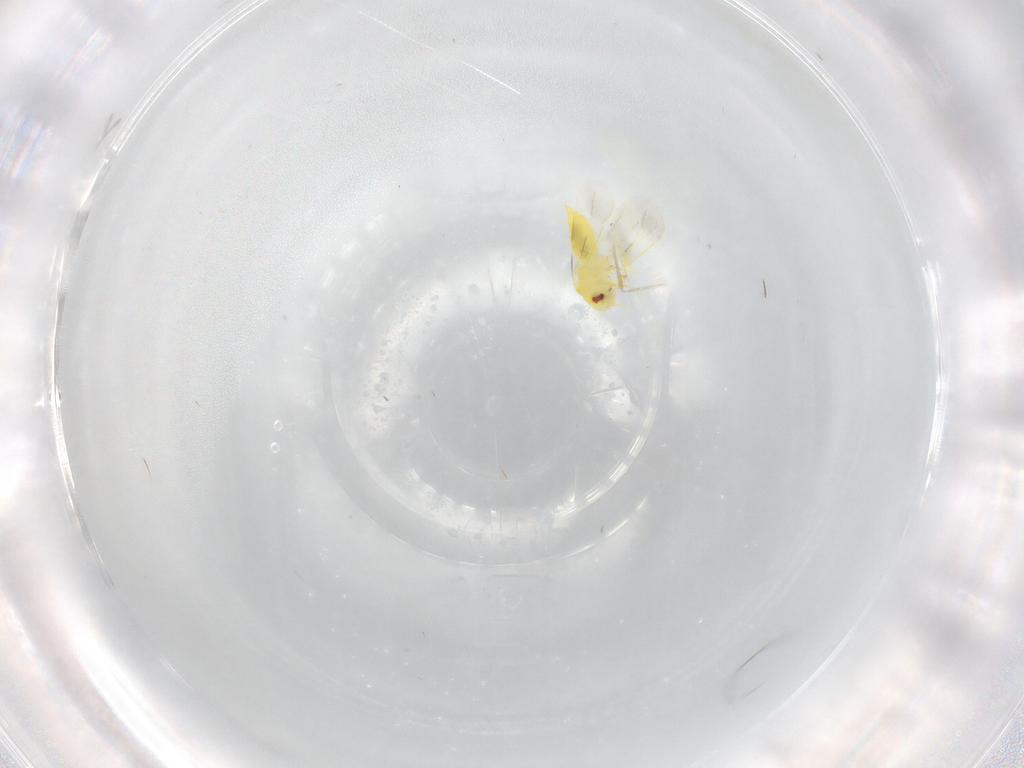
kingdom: Animalia
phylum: Arthropoda
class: Insecta
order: Hemiptera
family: Aleyrodidae
